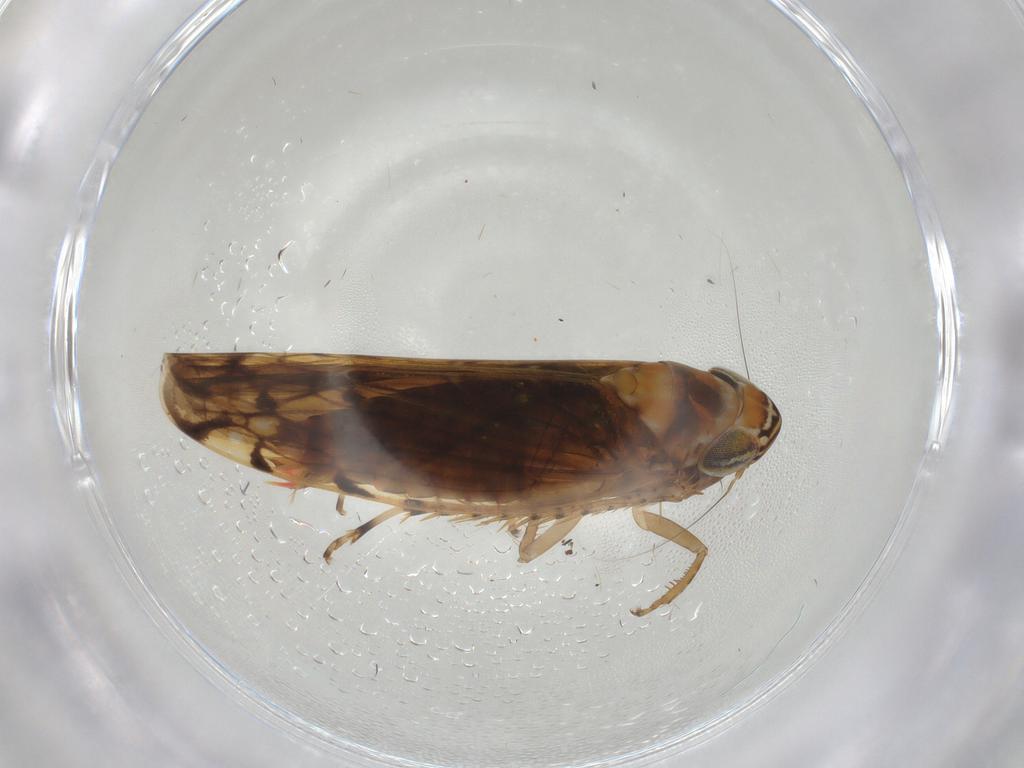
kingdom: Animalia
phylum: Arthropoda
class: Insecta
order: Hemiptera
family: Cicadellidae
